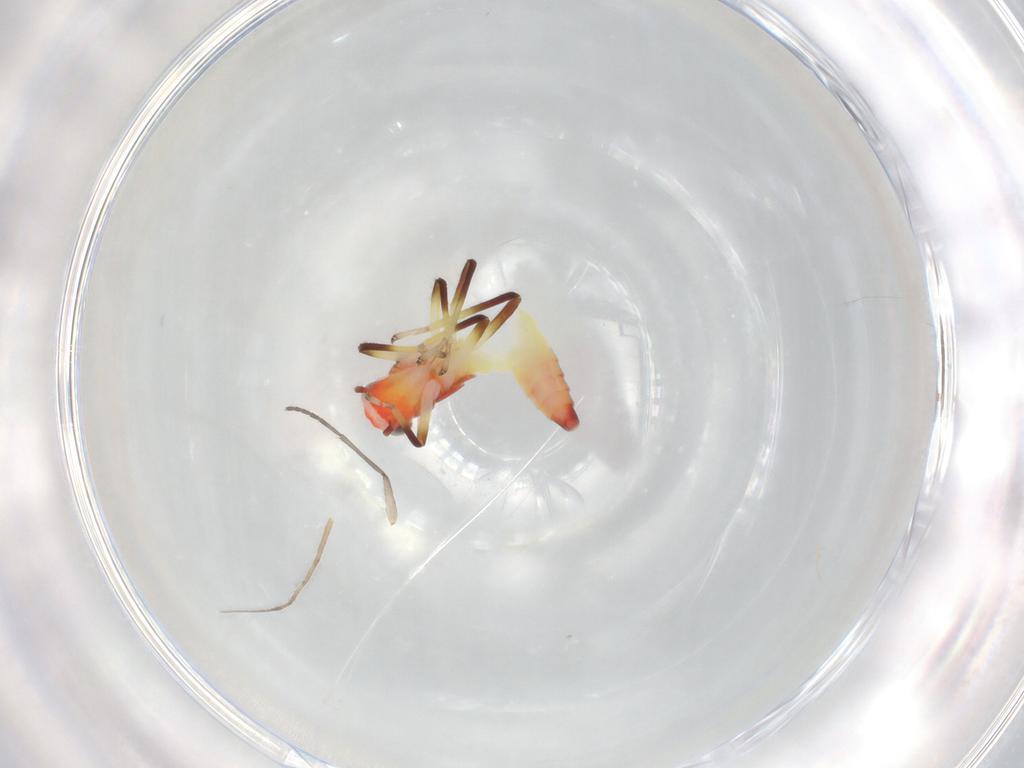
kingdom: Animalia
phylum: Arthropoda
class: Insecta
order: Hemiptera
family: Aphididae
